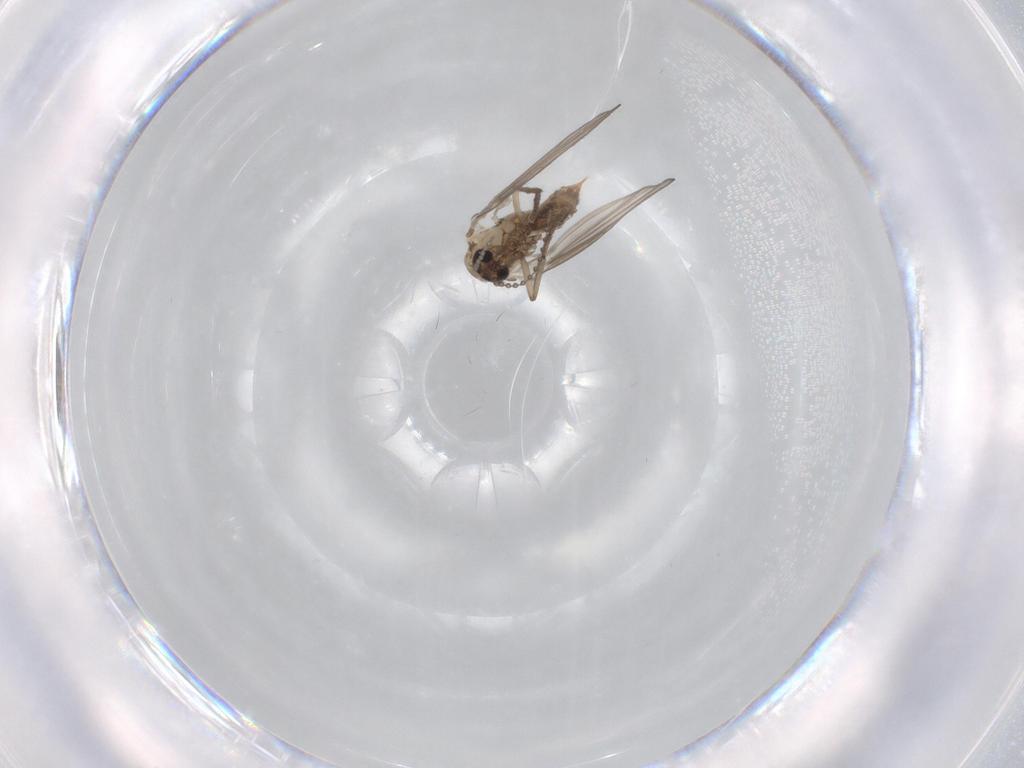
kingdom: Animalia
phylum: Arthropoda
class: Insecta
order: Diptera
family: Psychodidae
